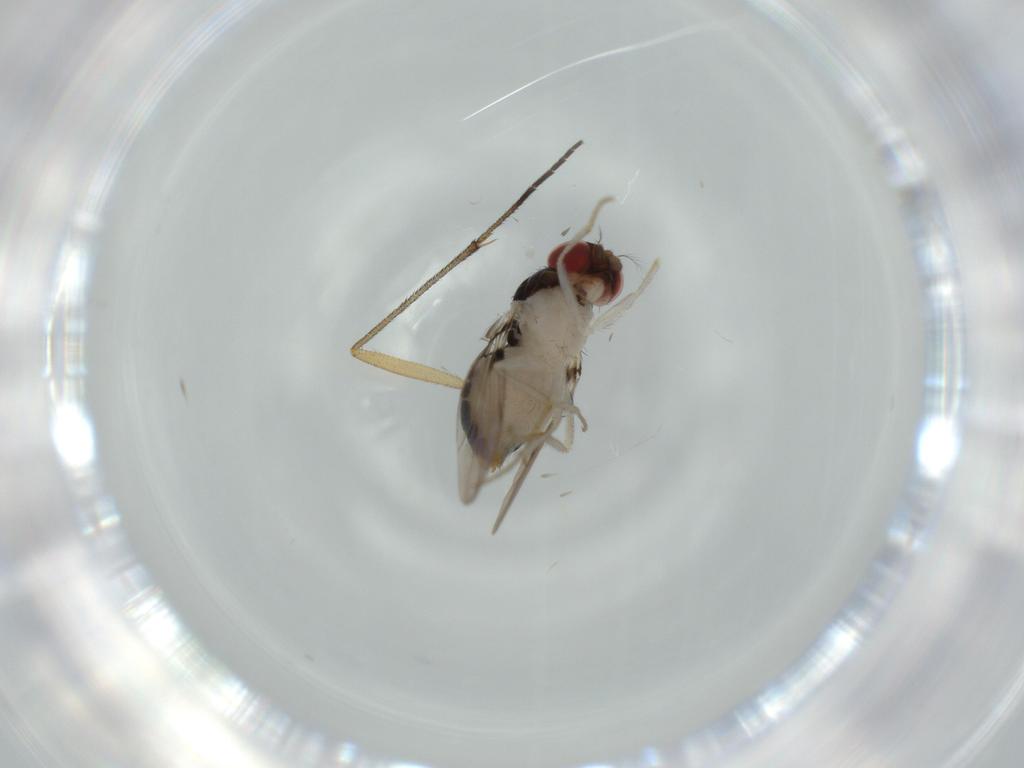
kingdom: Animalia
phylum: Arthropoda
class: Insecta
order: Diptera
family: Drosophilidae
